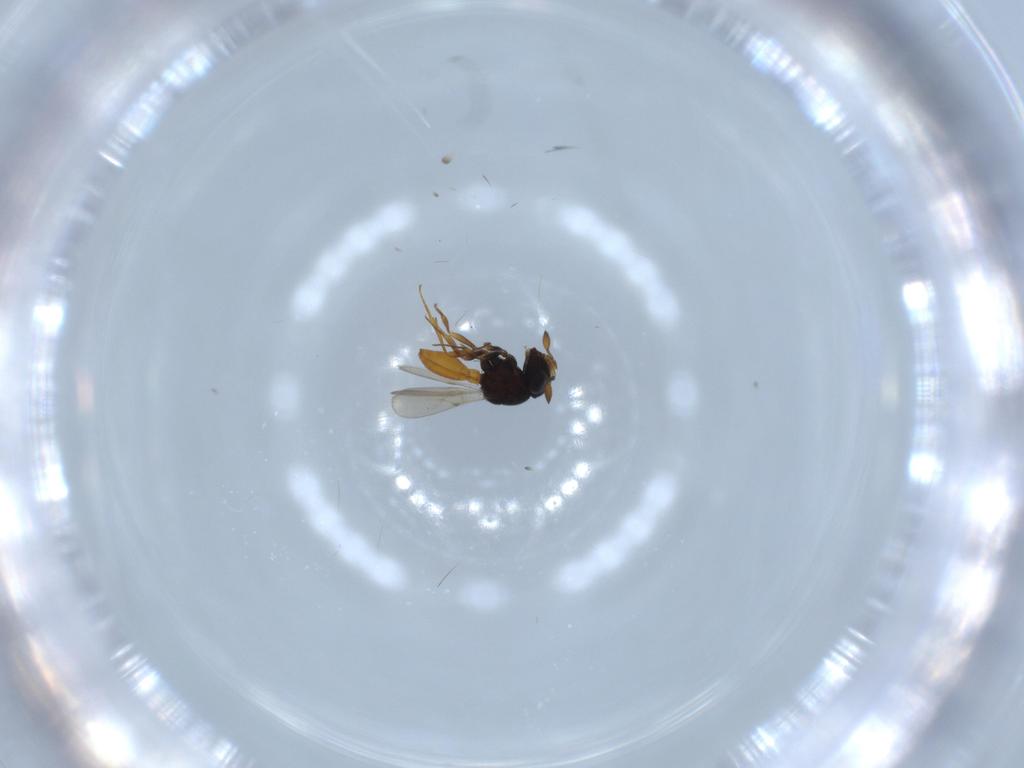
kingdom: Animalia
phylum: Arthropoda
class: Insecta
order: Hymenoptera
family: Scelionidae
